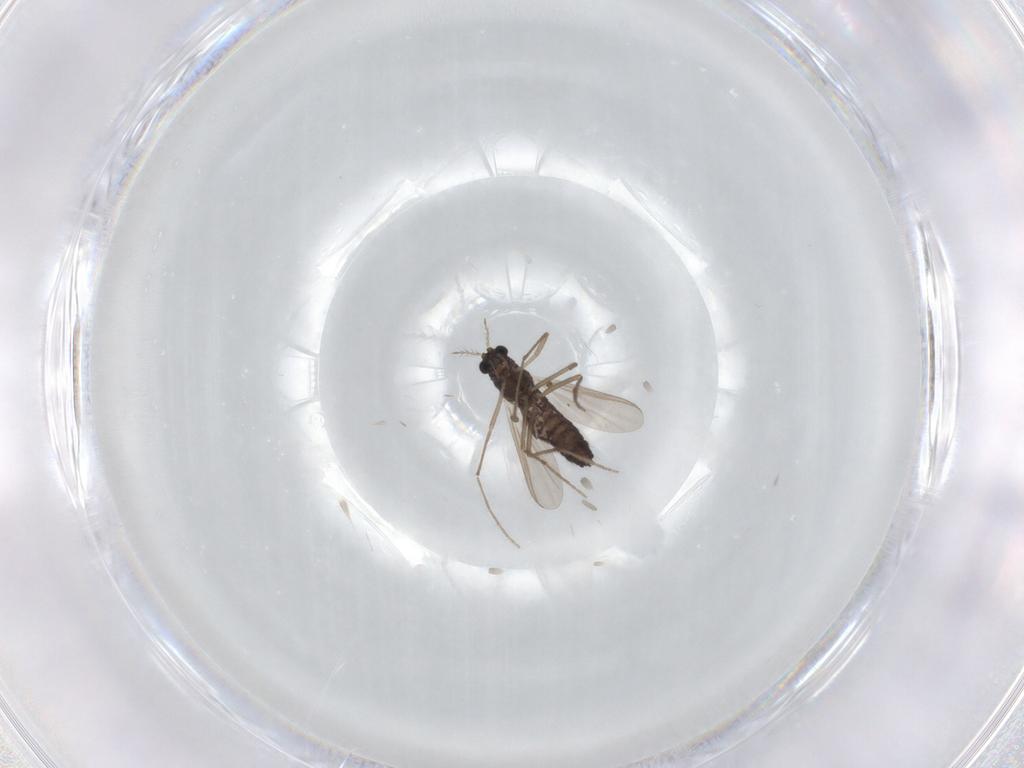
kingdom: Animalia
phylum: Arthropoda
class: Insecta
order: Diptera
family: Chironomidae
